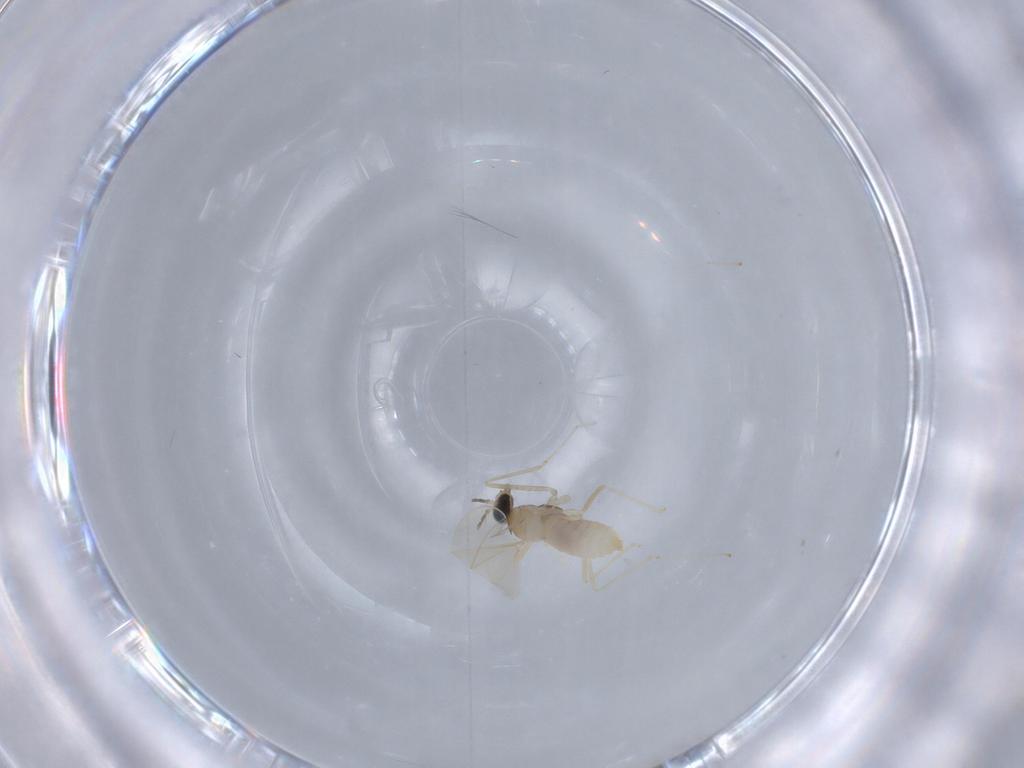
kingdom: Animalia
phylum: Arthropoda
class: Insecta
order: Diptera
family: Cecidomyiidae
